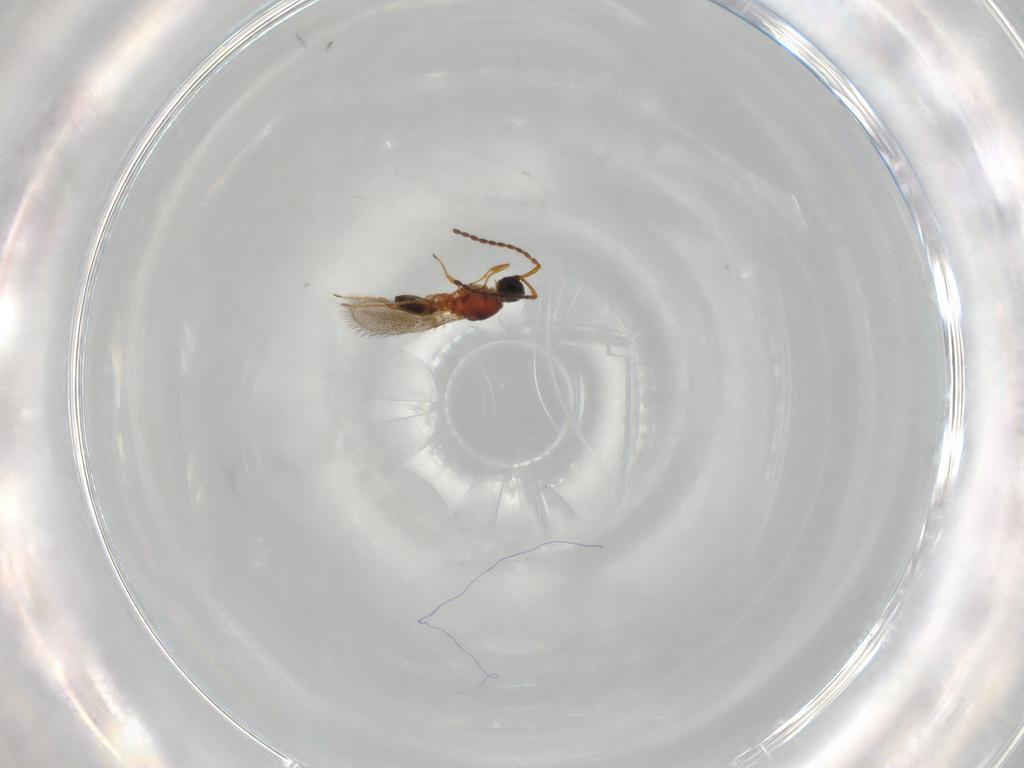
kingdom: Animalia
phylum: Arthropoda
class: Insecta
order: Hymenoptera
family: Diapriidae
